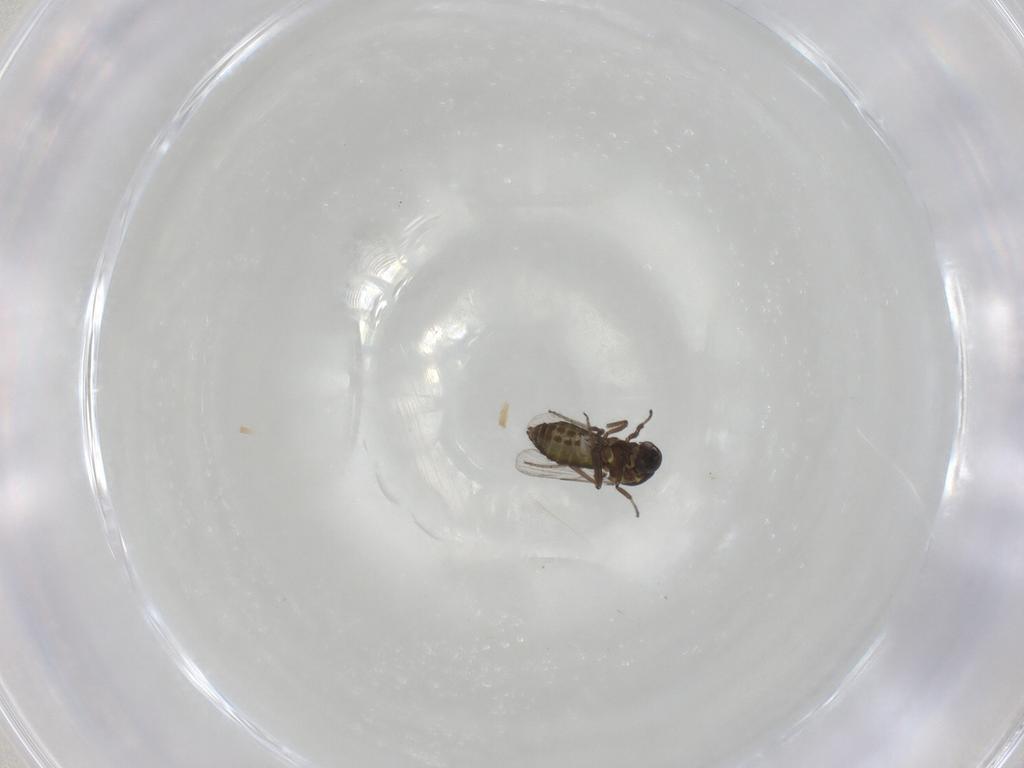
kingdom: Animalia
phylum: Arthropoda
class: Insecta
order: Diptera
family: Ceratopogonidae
